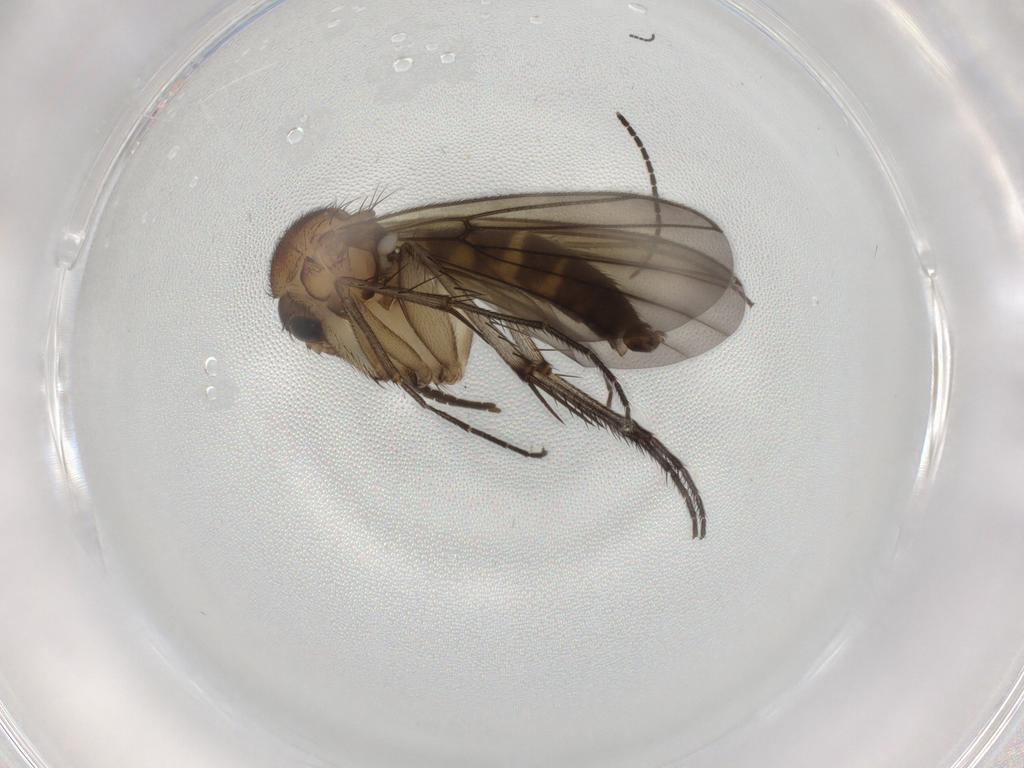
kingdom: Animalia
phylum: Arthropoda
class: Insecta
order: Diptera
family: Mycetophilidae
